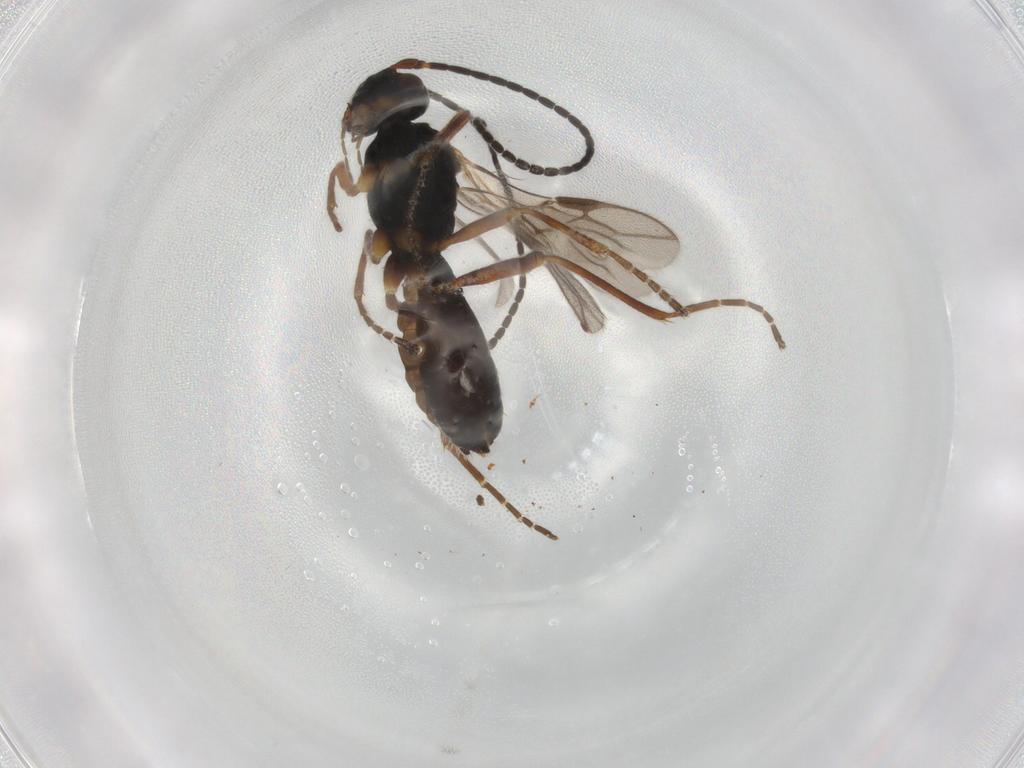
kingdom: Animalia
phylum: Arthropoda
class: Insecta
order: Hymenoptera
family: Braconidae
